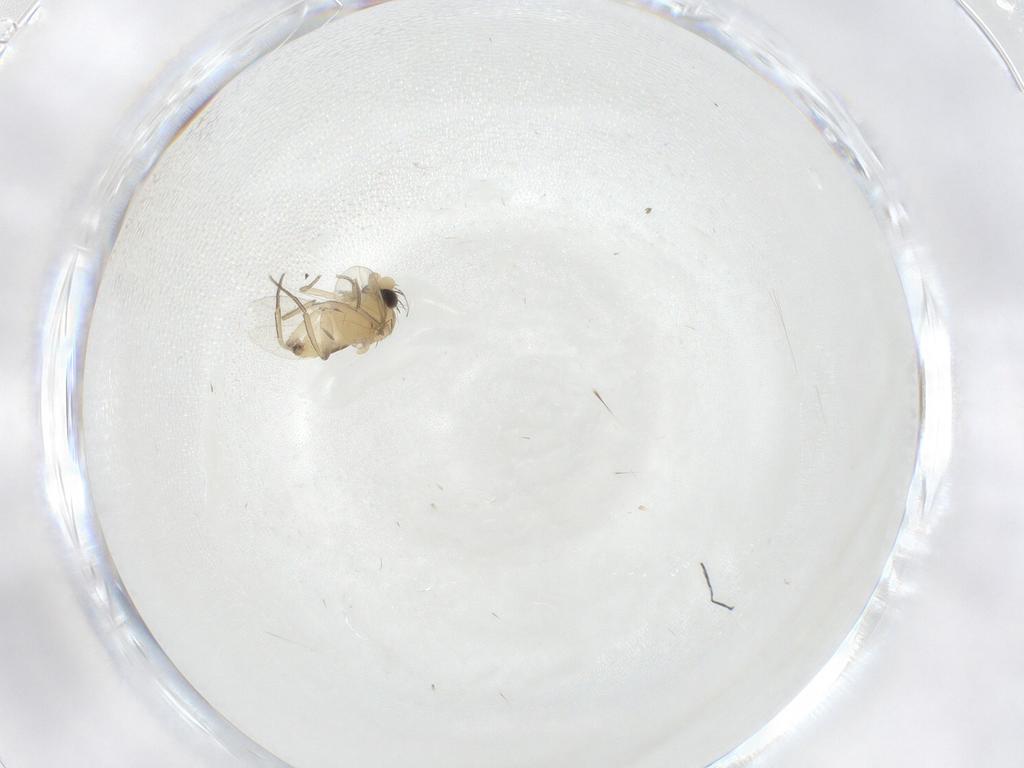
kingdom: Animalia
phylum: Arthropoda
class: Insecta
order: Diptera
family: Phoridae
